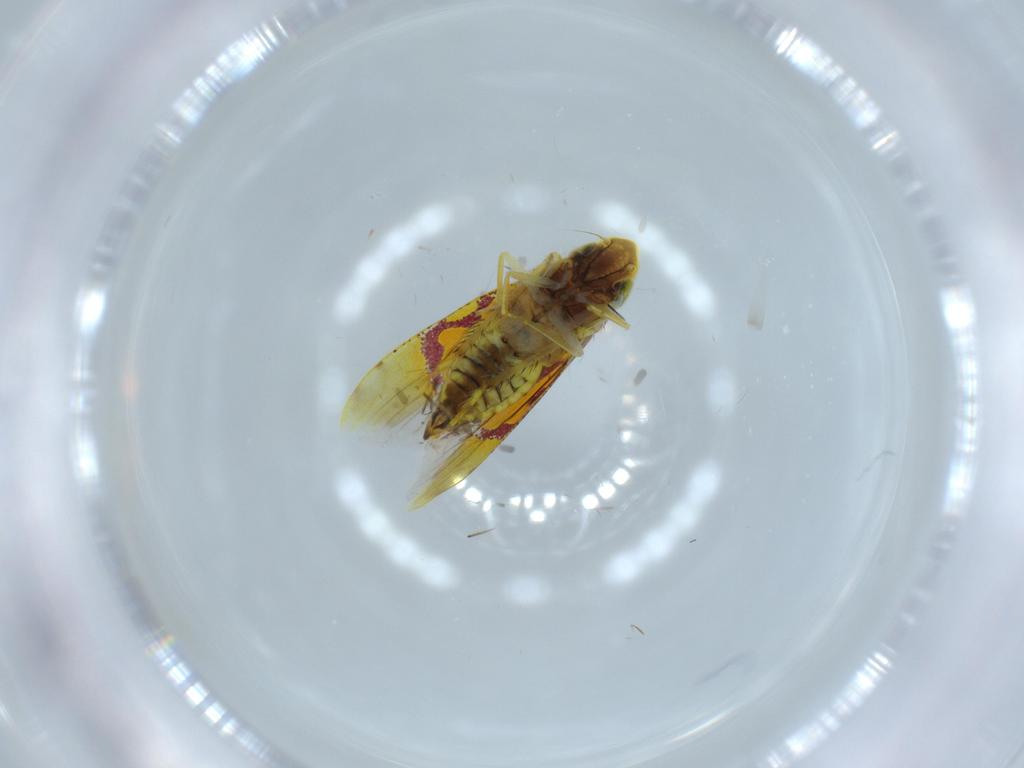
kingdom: Animalia
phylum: Arthropoda
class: Insecta
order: Hemiptera
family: Cicadellidae
